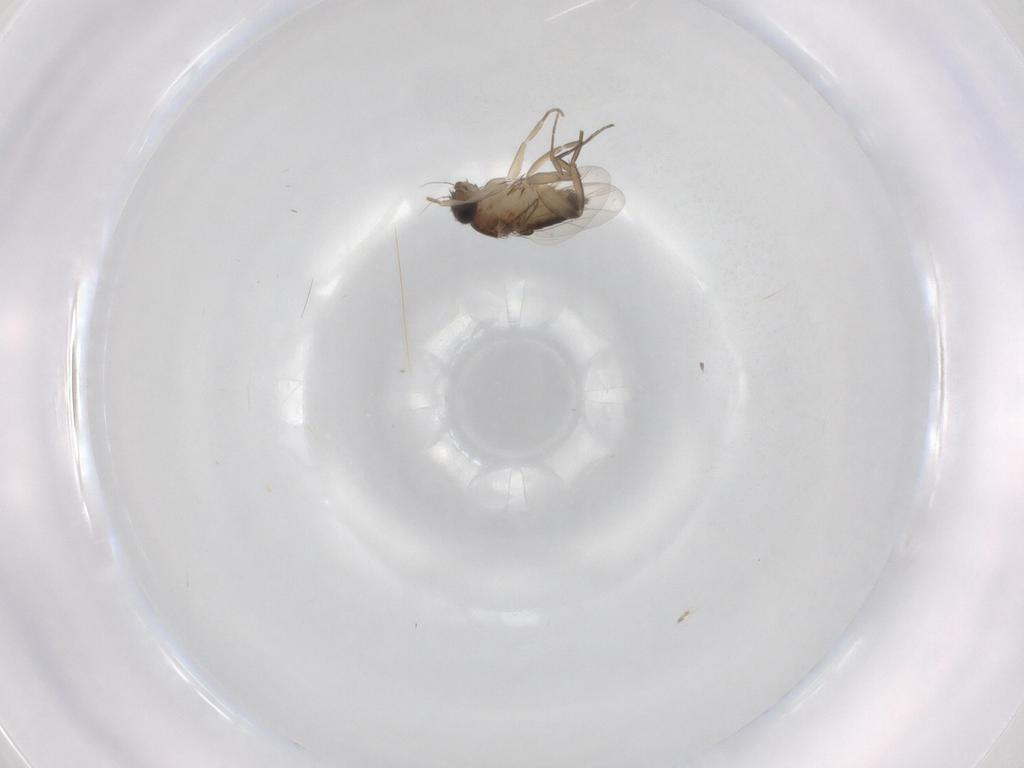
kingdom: Animalia
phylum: Arthropoda
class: Insecta
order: Diptera
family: Phoridae
